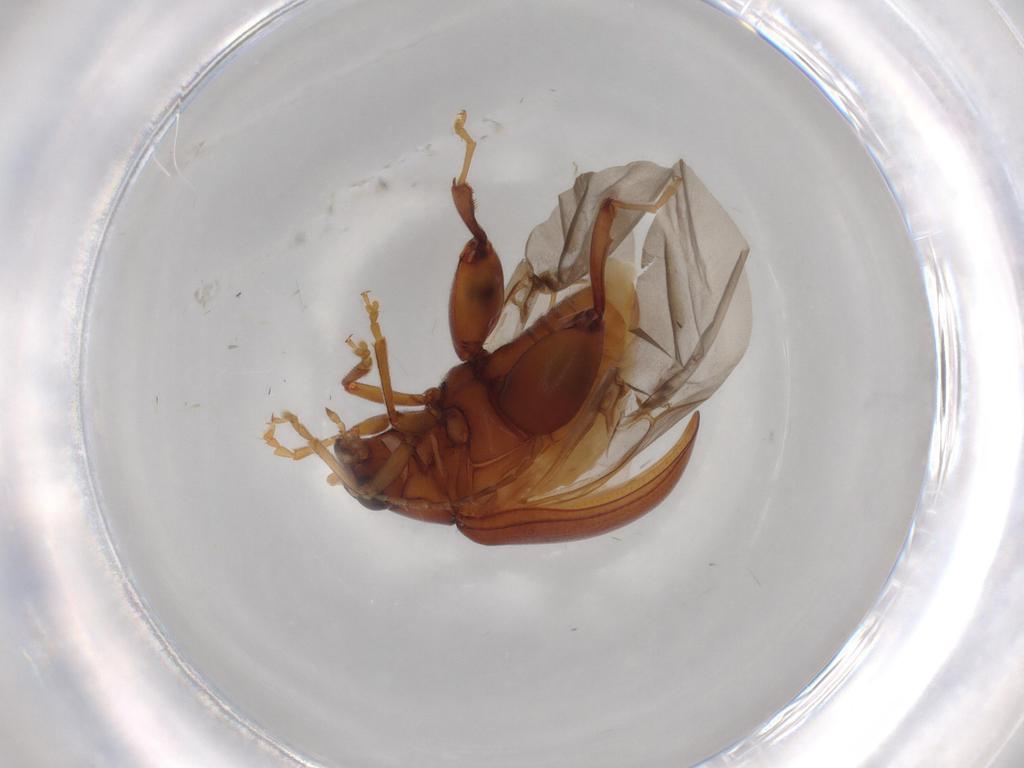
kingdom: Animalia
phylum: Arthropoda
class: Insecta
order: Coleoptera
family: Chrysomelidae
